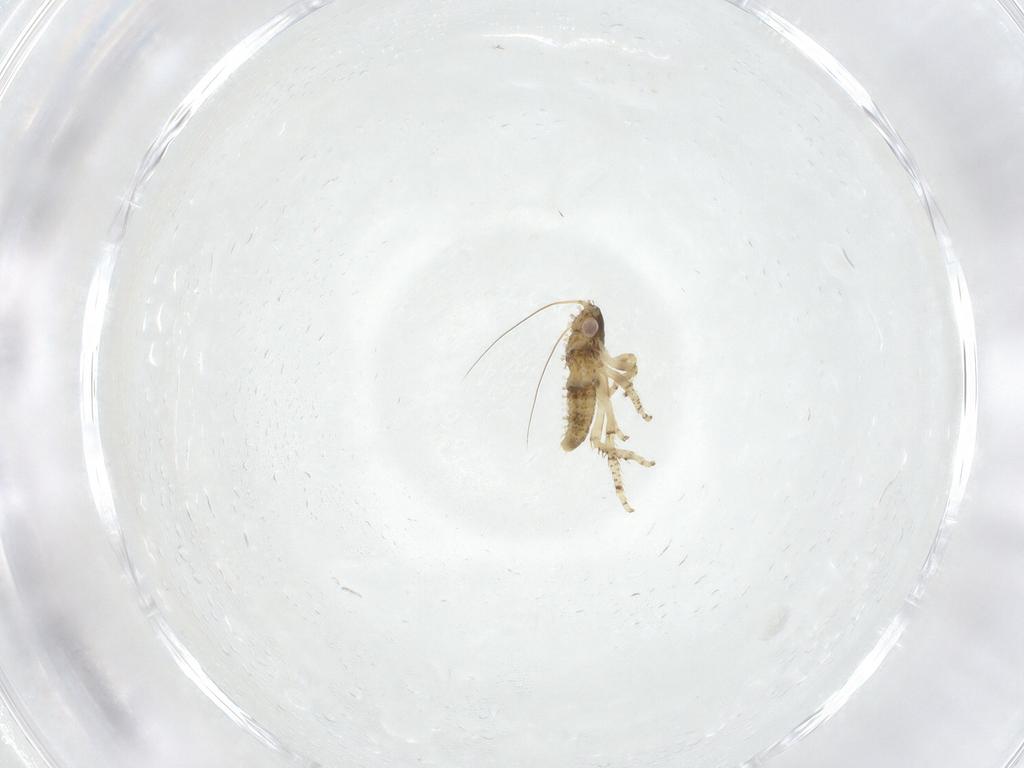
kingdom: Animalia
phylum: Arthropoda
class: Insecta
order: Hemiptera
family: Cicadellidae
